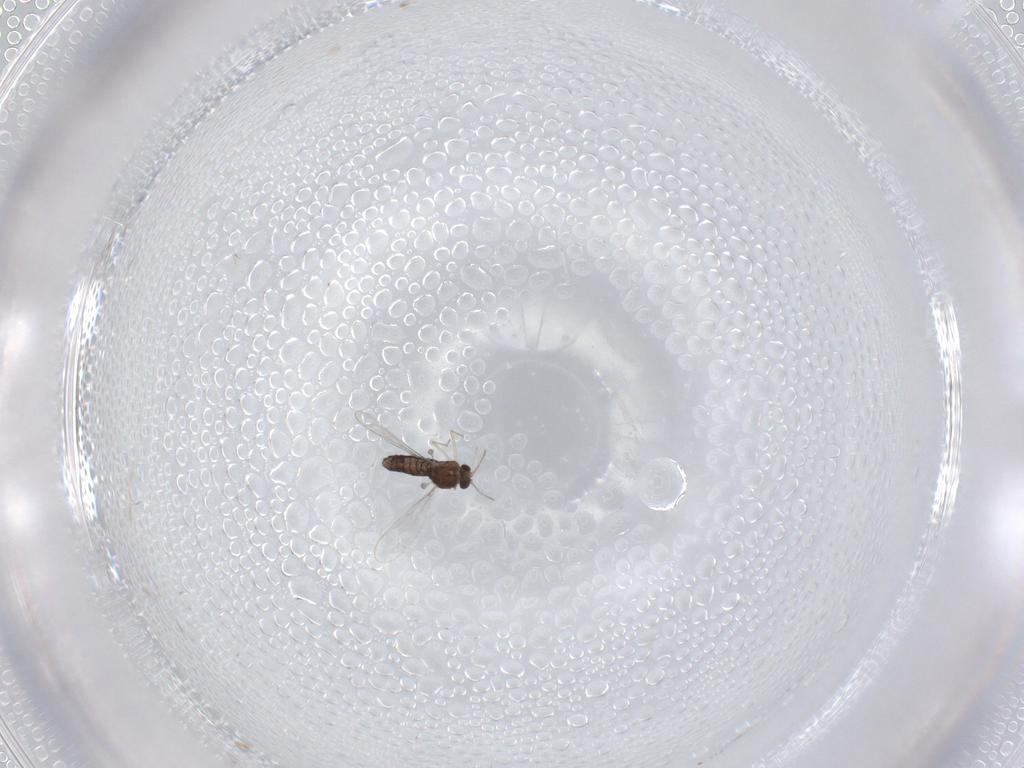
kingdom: Animalia
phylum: Arthropoda
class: Insecta
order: Diptera
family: Chironomidae
